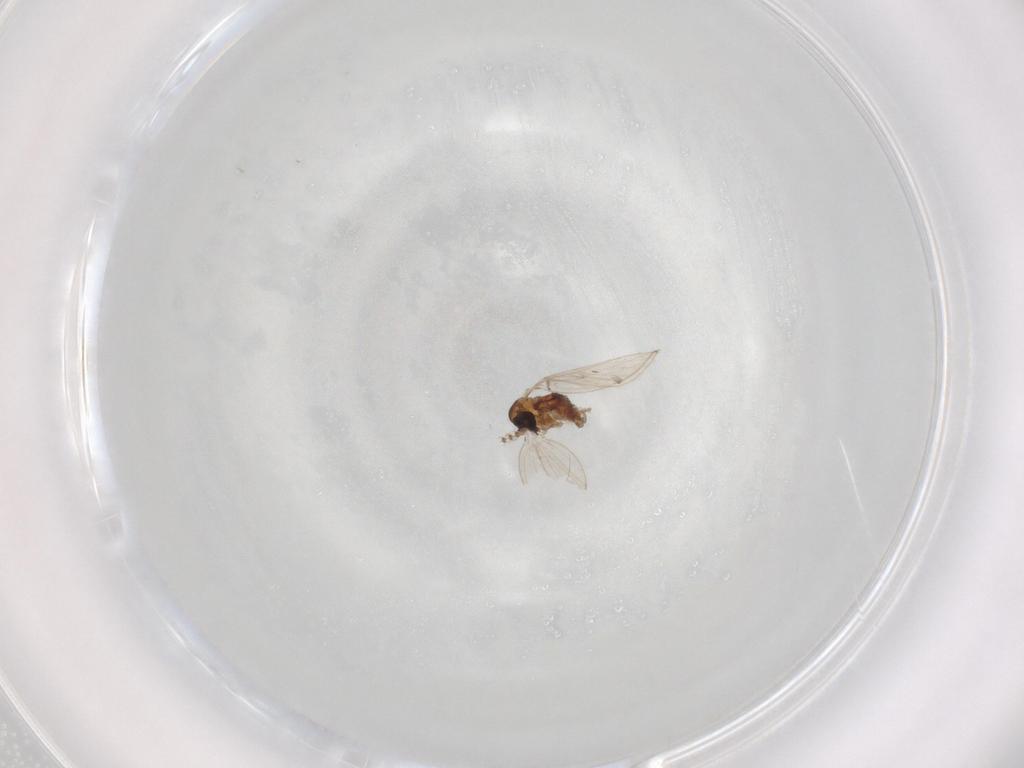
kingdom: Animalia
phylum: Arthropoda
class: Insecta
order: Diptera
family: Psychodidae
